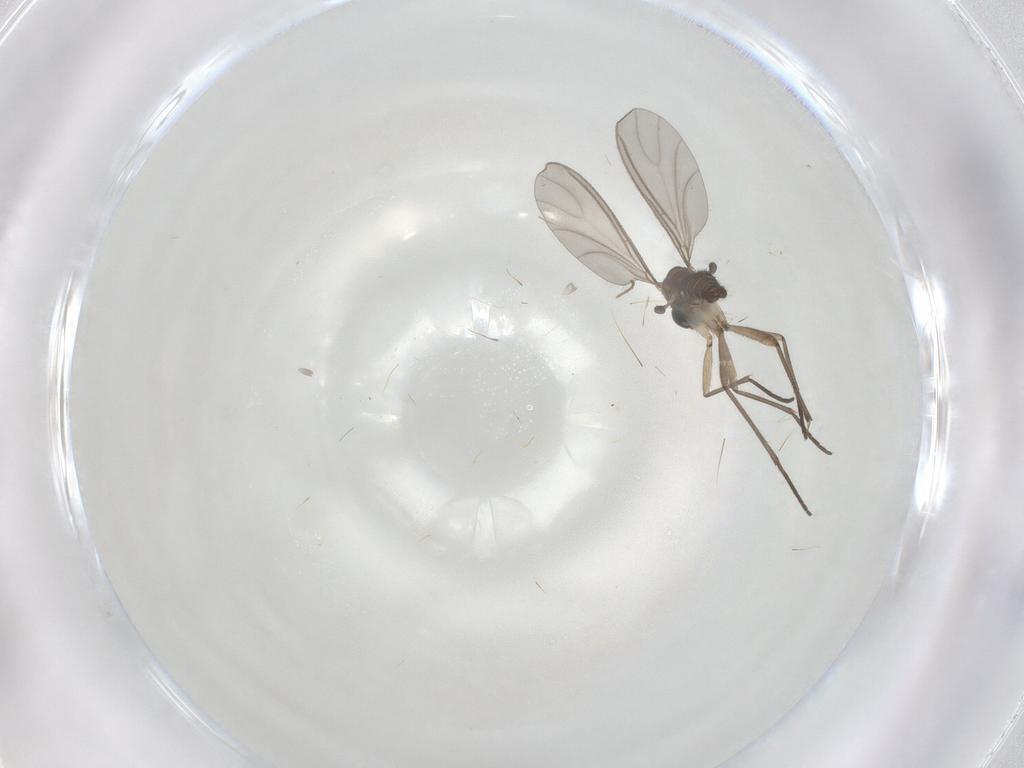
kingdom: Animalia
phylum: Arthropoda
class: Insecta
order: Diptera
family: Sciaridae
